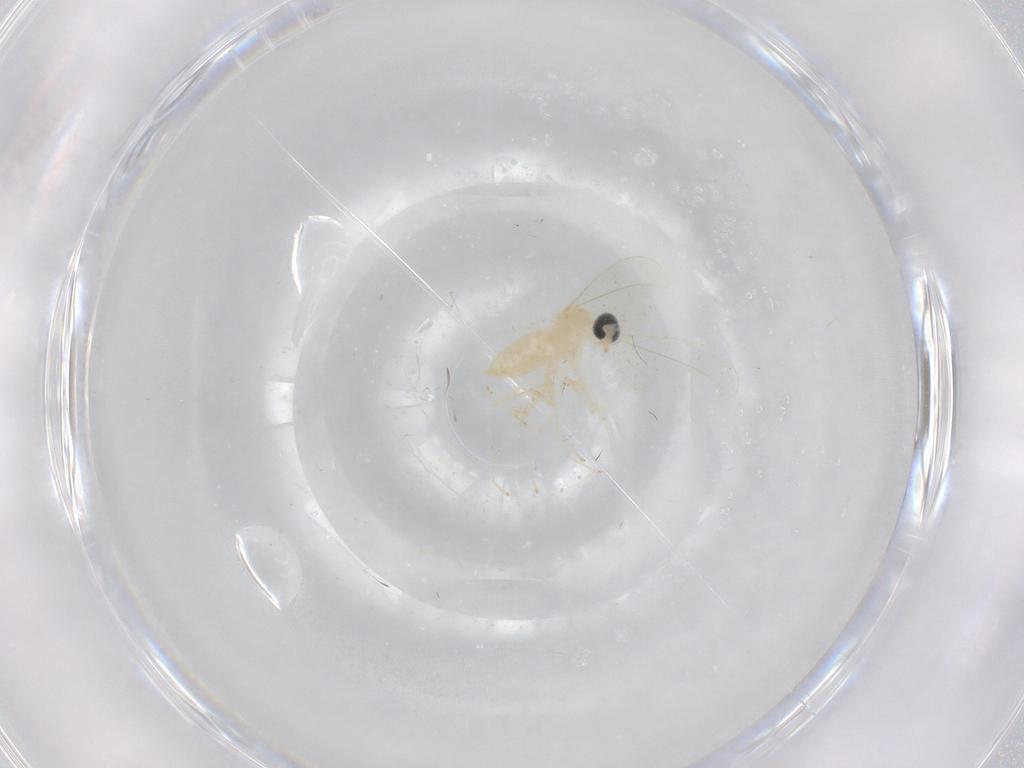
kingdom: Animalia
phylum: Arthropoda
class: Insecta
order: Diptera
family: Cecidomyiidae
